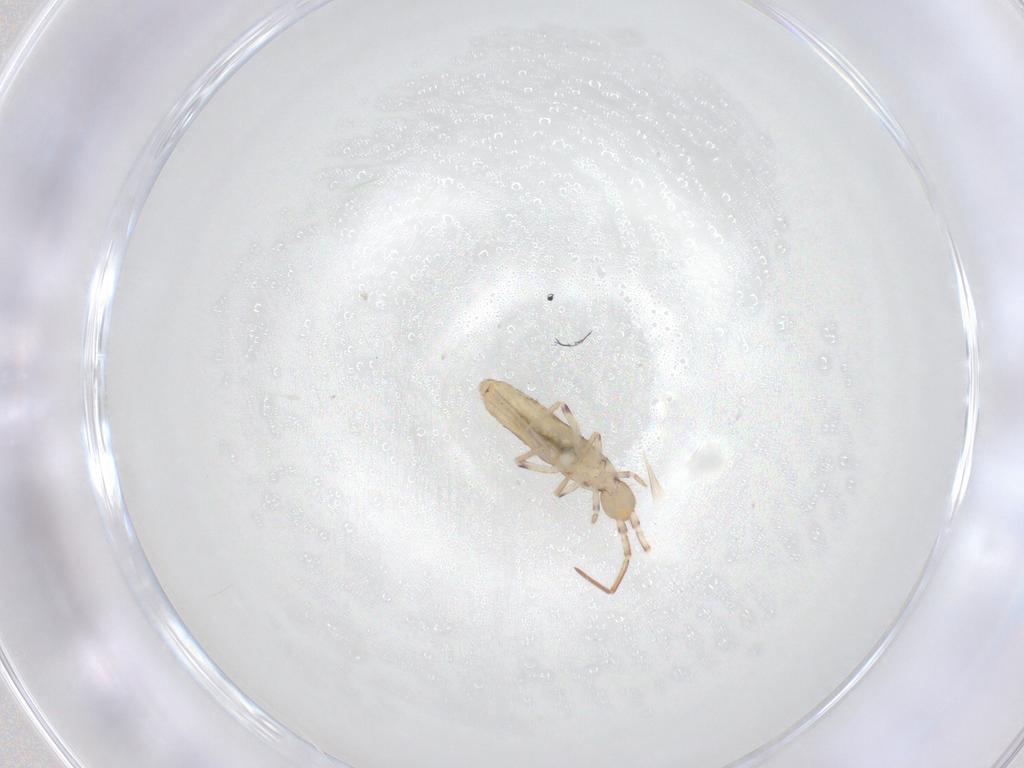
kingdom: Animalia
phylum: Arthropoda
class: Collembola
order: Entomobryomorpha
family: Entomobryidae
